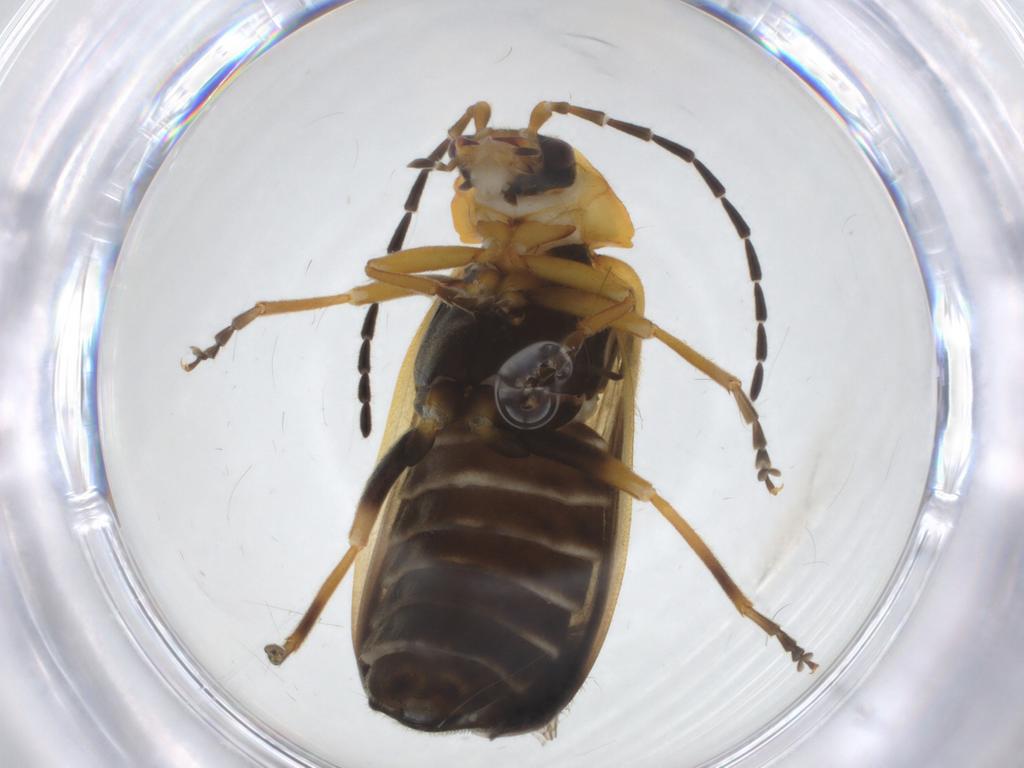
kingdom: Animalia
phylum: Arthropoda
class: Insecta
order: Coleoptera
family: Cantharidae
